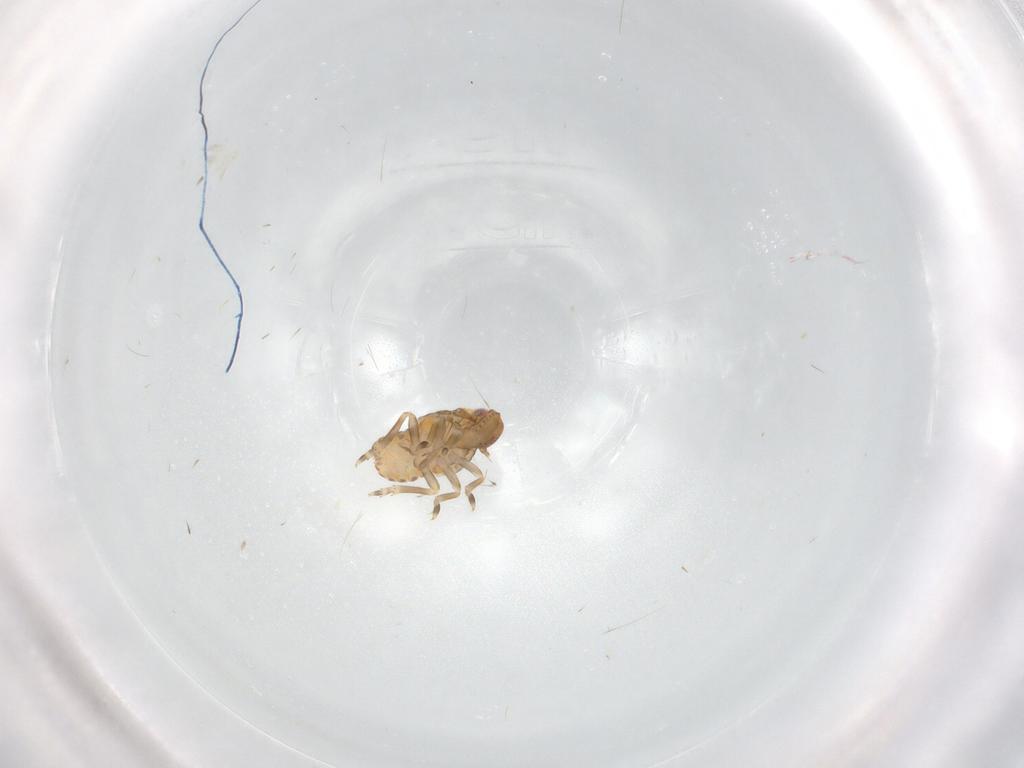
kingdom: Animalia
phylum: Arthropoda
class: Insecta
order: Hemiptera
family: Flatidae
